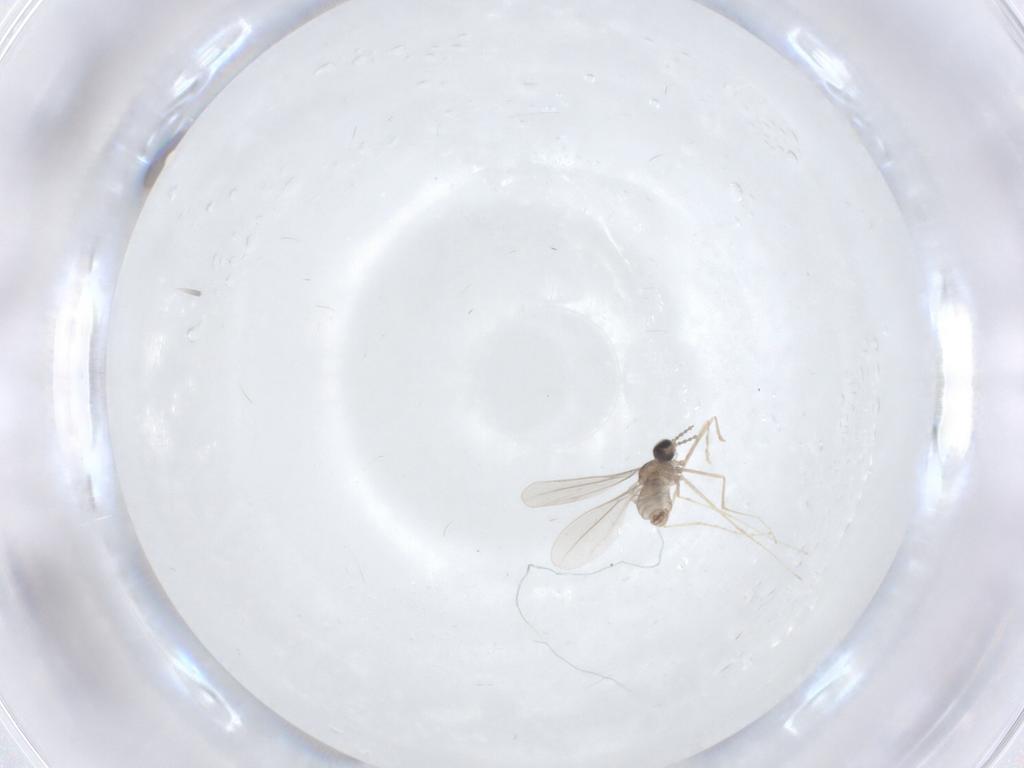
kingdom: Animalia
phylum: Arthropoda
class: Insecta
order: Diptera
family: Cecidomyiidae
